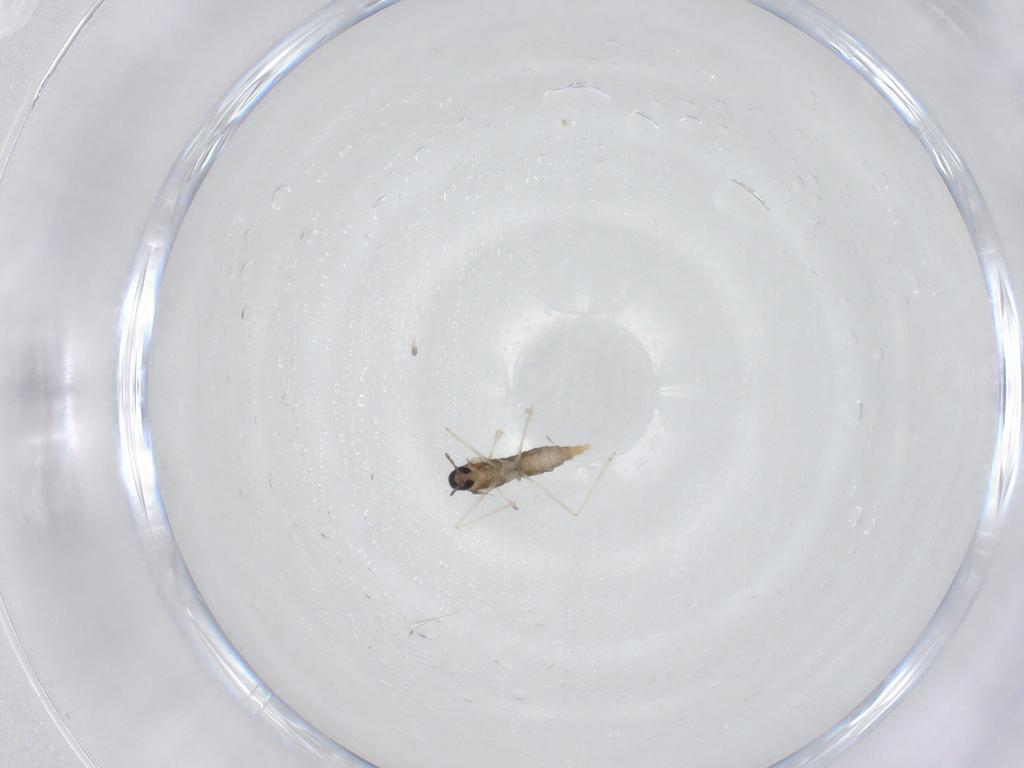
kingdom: Animalia
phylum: Arthropoda
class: Insecta
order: Diptera
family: Cecidomyiidae
